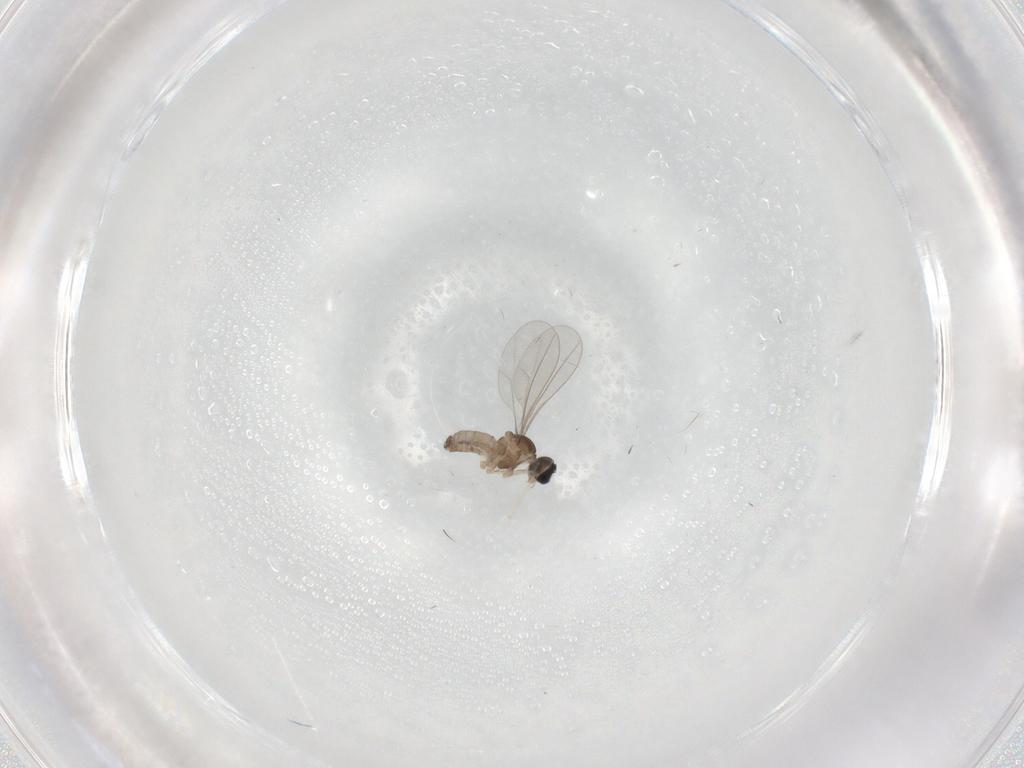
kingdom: Animalia
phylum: Arthropoda
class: Insecta
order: Diptera
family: Cecidomyiidae
